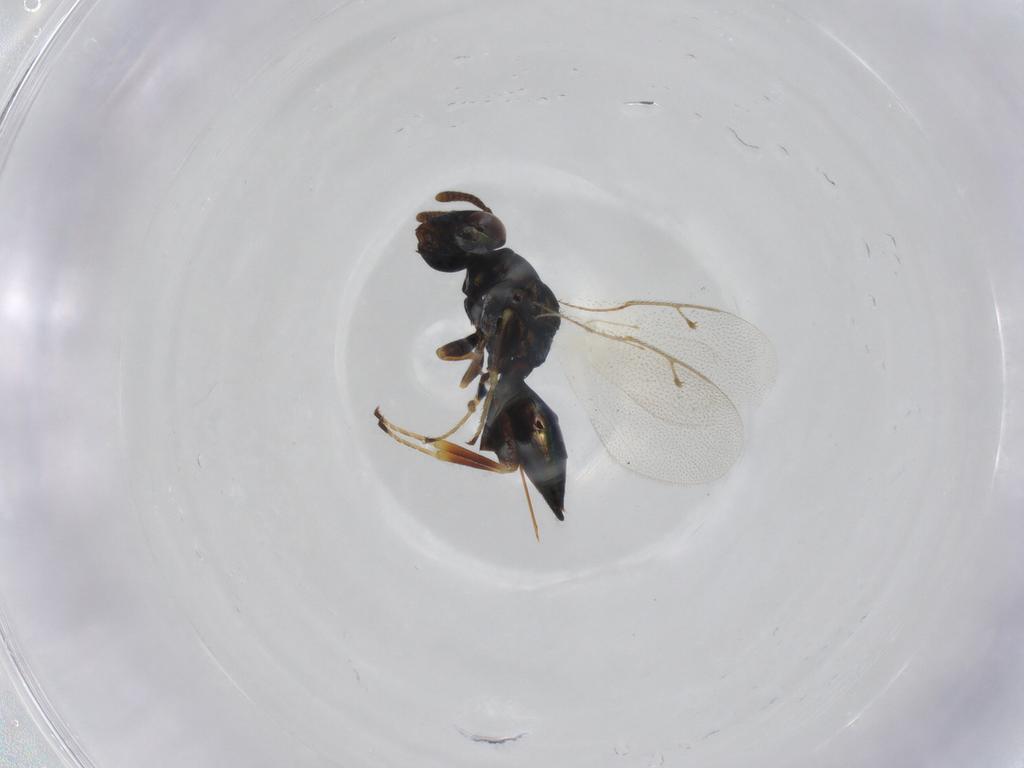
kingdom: Animalia
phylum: Arthropoda
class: Insecta
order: Hymenoptera
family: Pteromalidae
